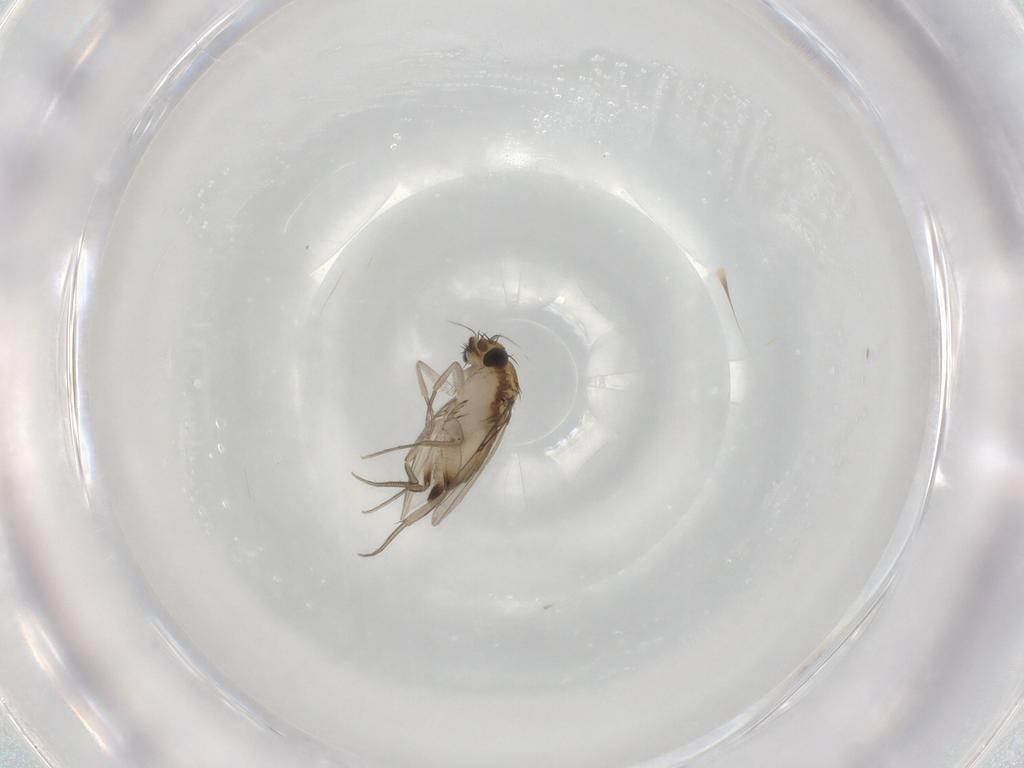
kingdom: Animalia
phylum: Arthropoda
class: Insecta
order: Diptera
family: Phoridae
